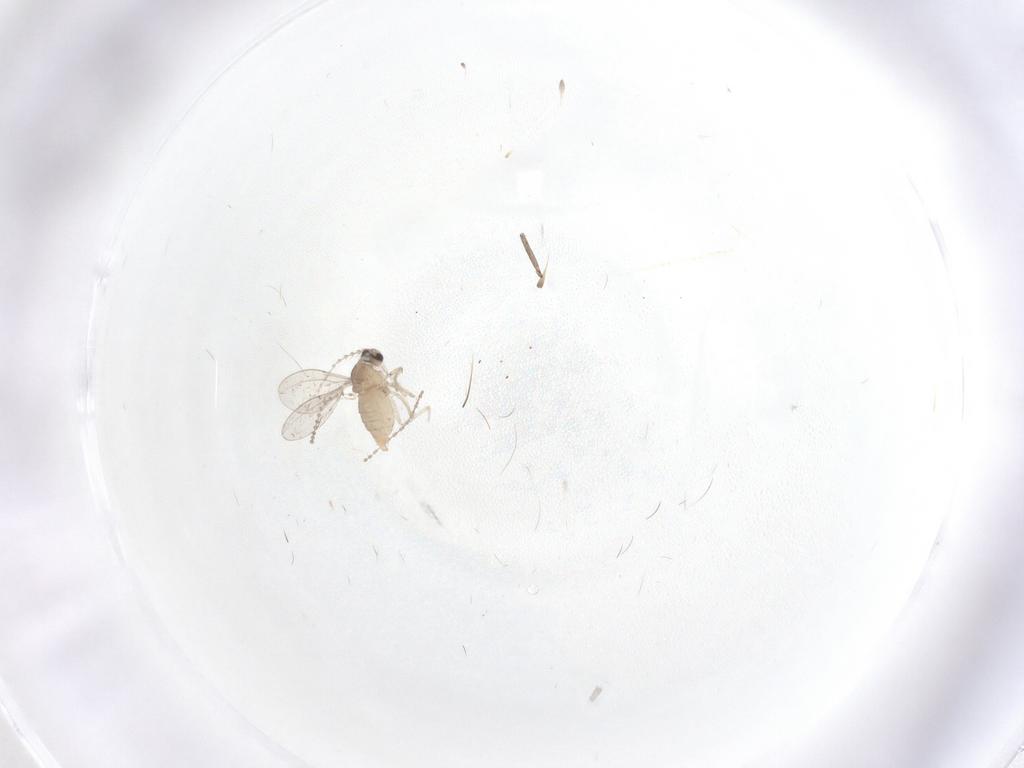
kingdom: Animalia
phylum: Arthropoda
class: Insecta
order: Diptera
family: Cecidomyiidae
